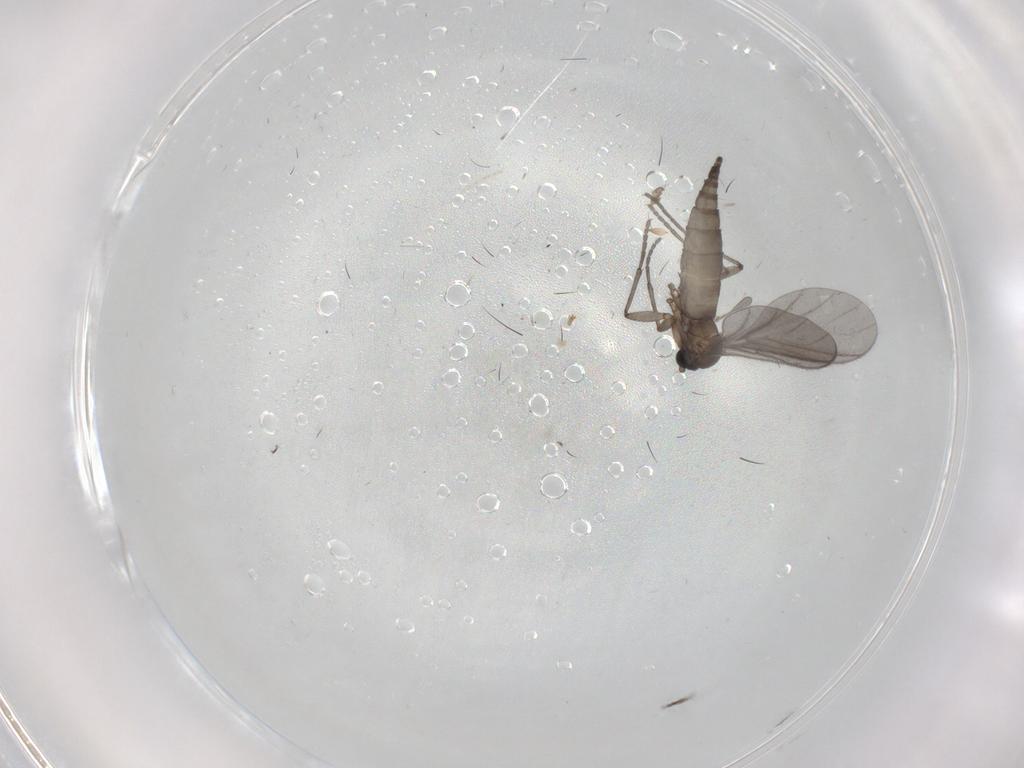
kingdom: Animalia
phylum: Arthropoda
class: Insecta
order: Diptera
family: Sciaridae
